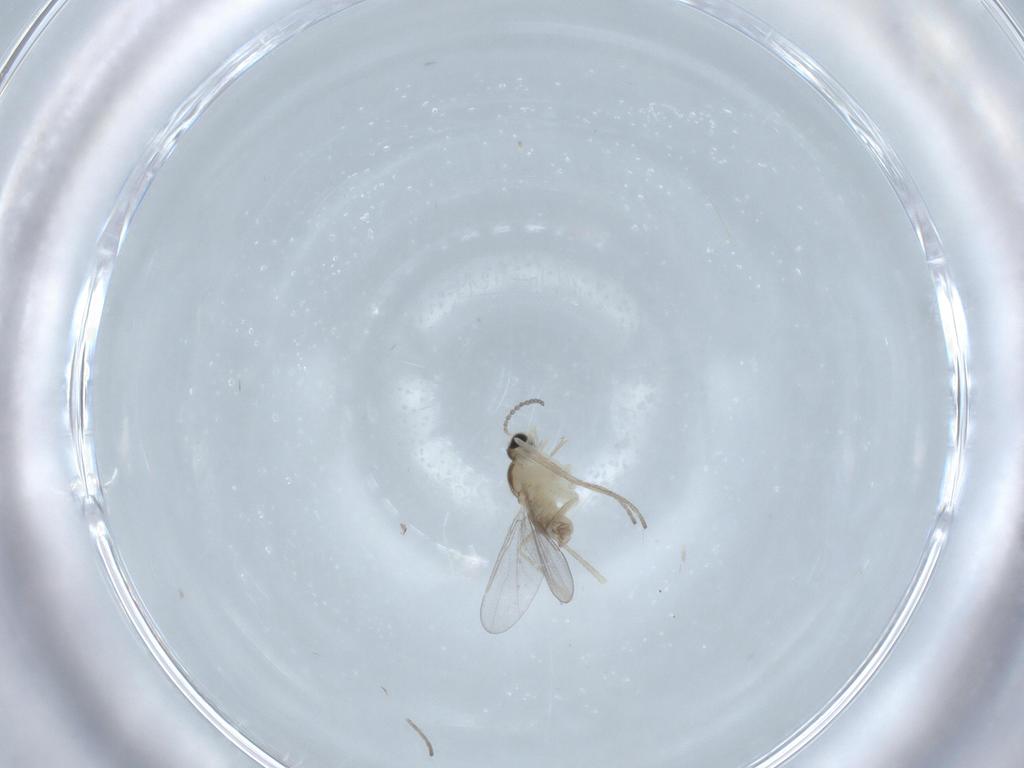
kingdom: Animalia
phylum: Arthropoda
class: Insecta
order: Diptera
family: Cecidomyiidae
